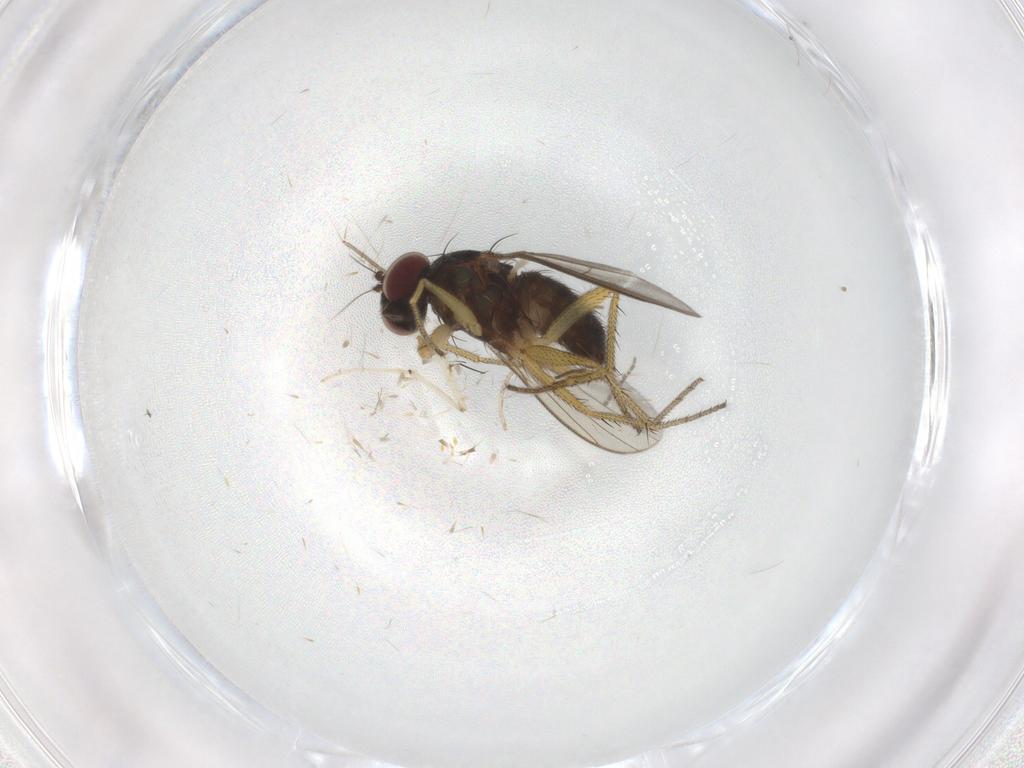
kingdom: Animalia
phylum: Arthropoda
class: Insecta
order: Diptera
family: Dolichopodidae
